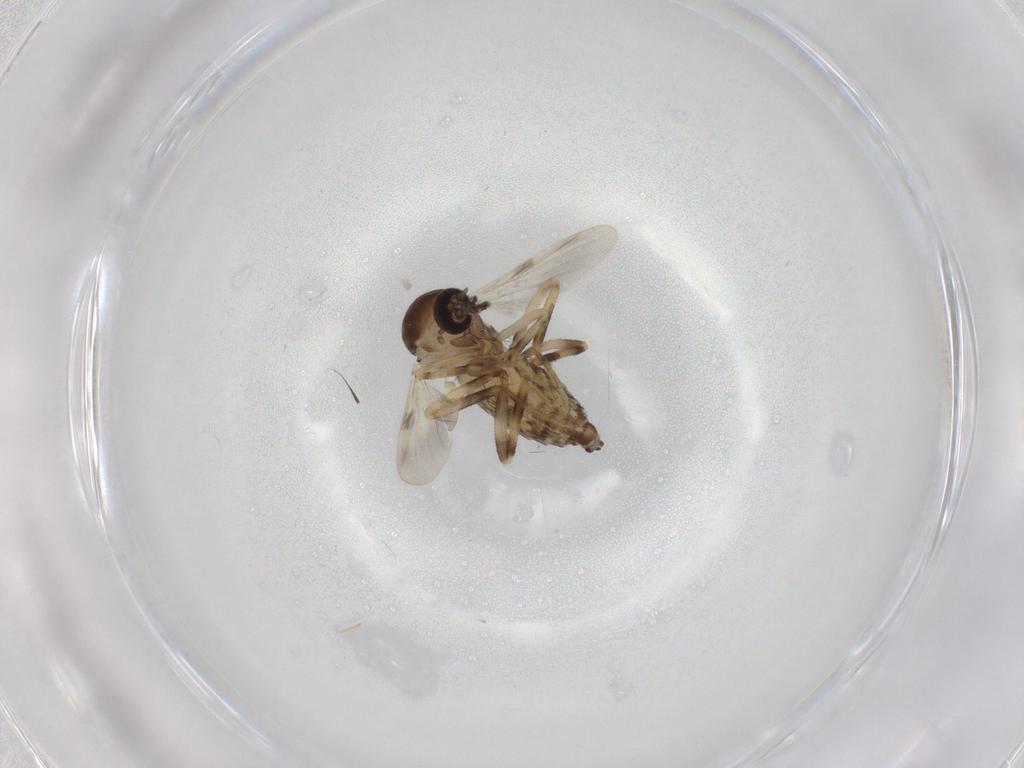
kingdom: Animalia
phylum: Arthropoda
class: Insecta
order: Diptera
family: Ceratopogonidae
